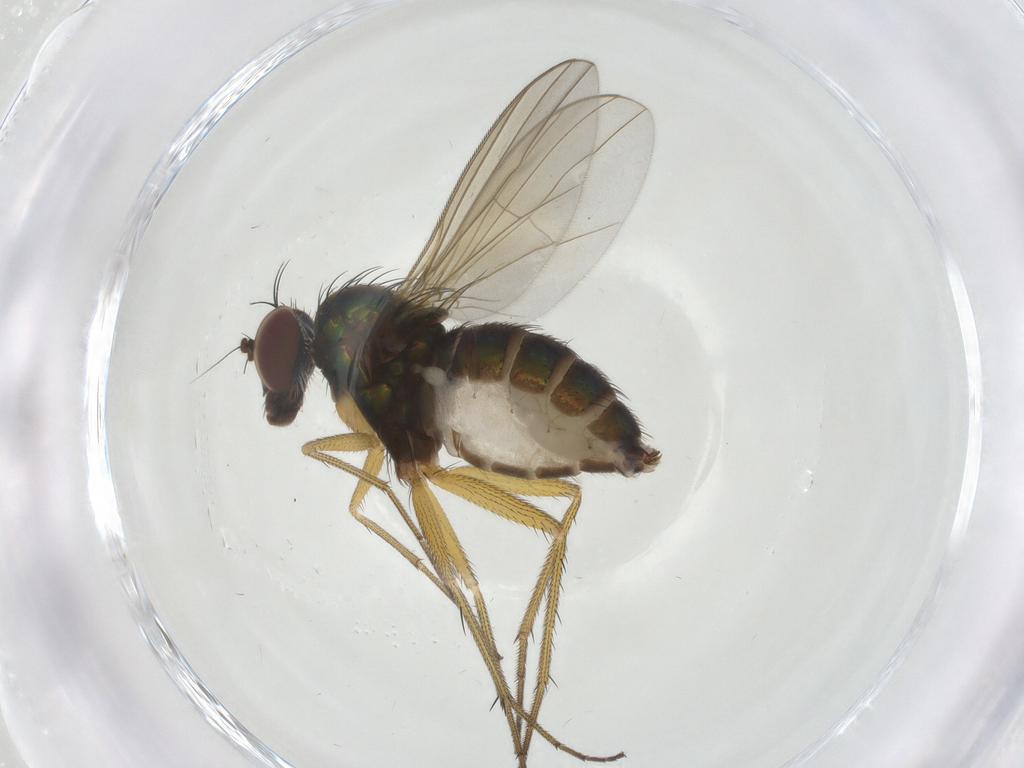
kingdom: Animalia
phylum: Arthropoda
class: Insecta
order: Diptera
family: Dolichopodidae
